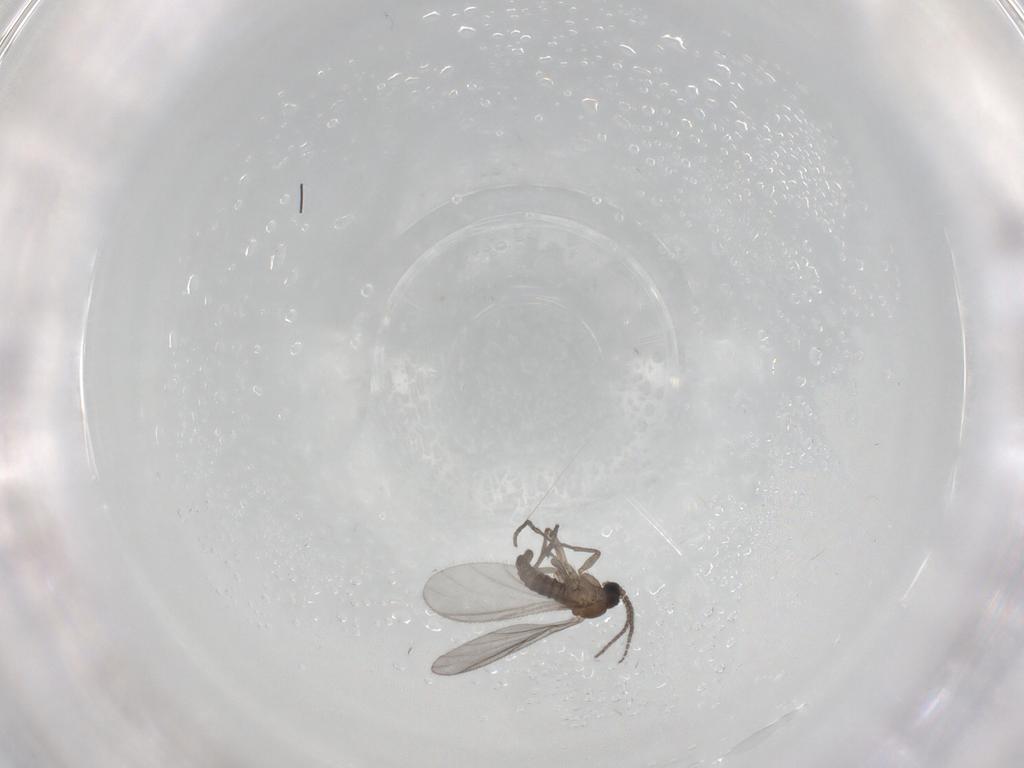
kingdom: Animalia
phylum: Arthropoda
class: Insecta
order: Diptera
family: Sciaridae
